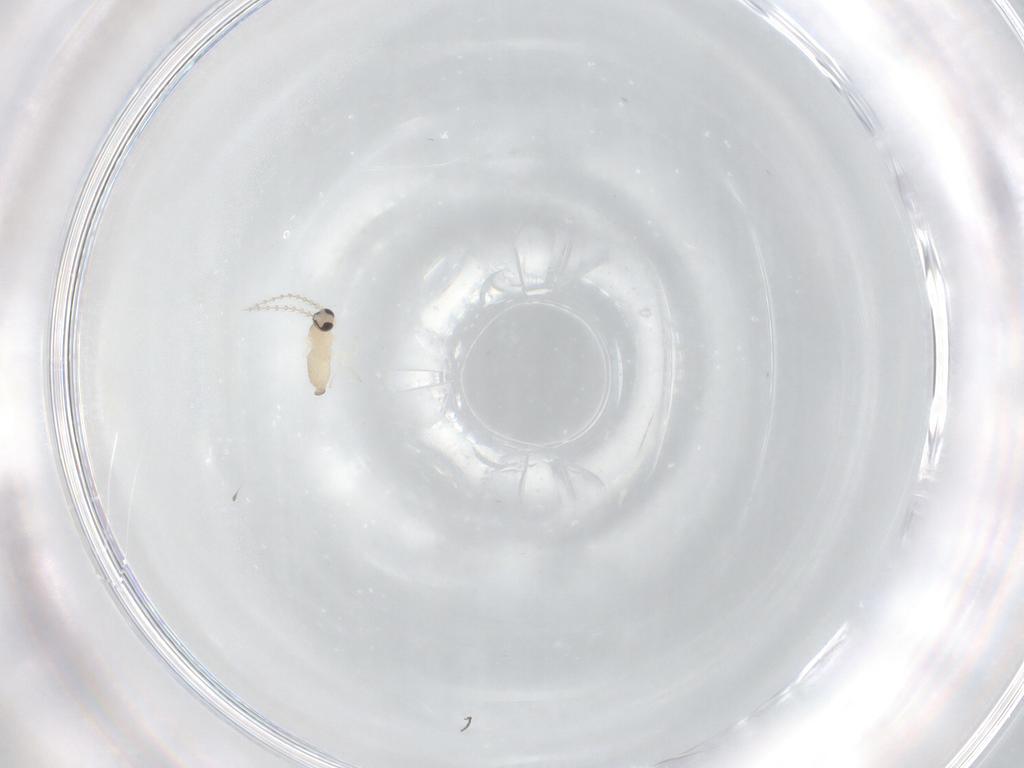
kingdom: Animalia
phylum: Arthropoda
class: Insecta
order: Diptera
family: Cecidomyiidae
